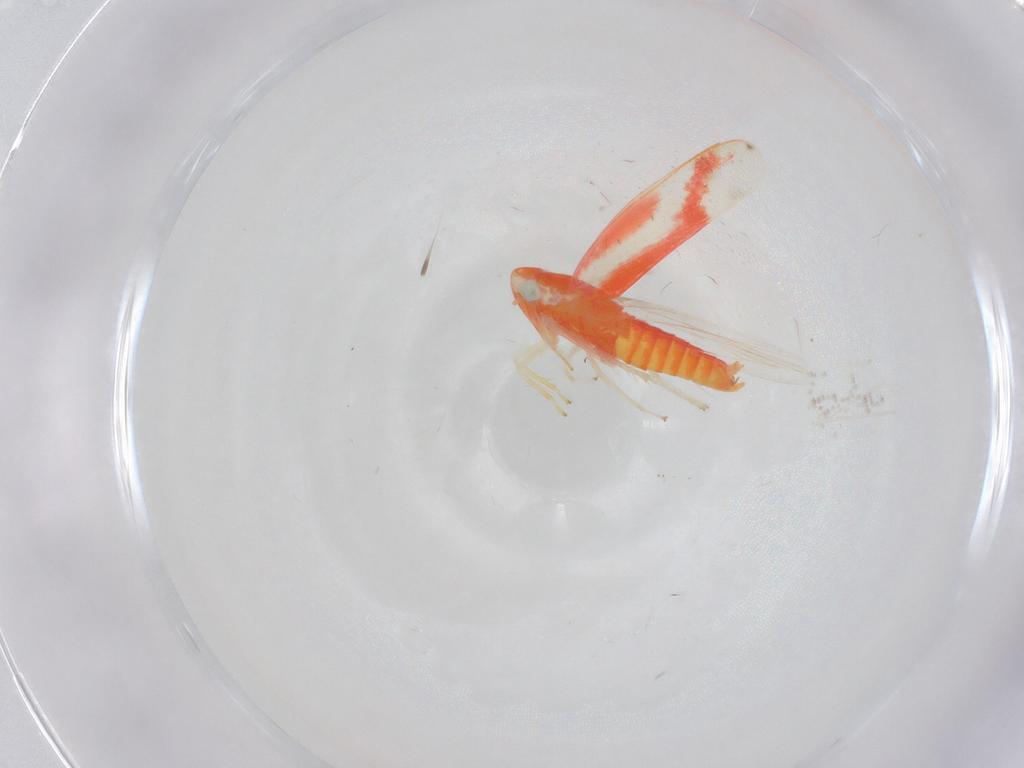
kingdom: Animalia
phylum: Arthropoda
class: Insecta
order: Hemiptera
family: Cicadellidae
